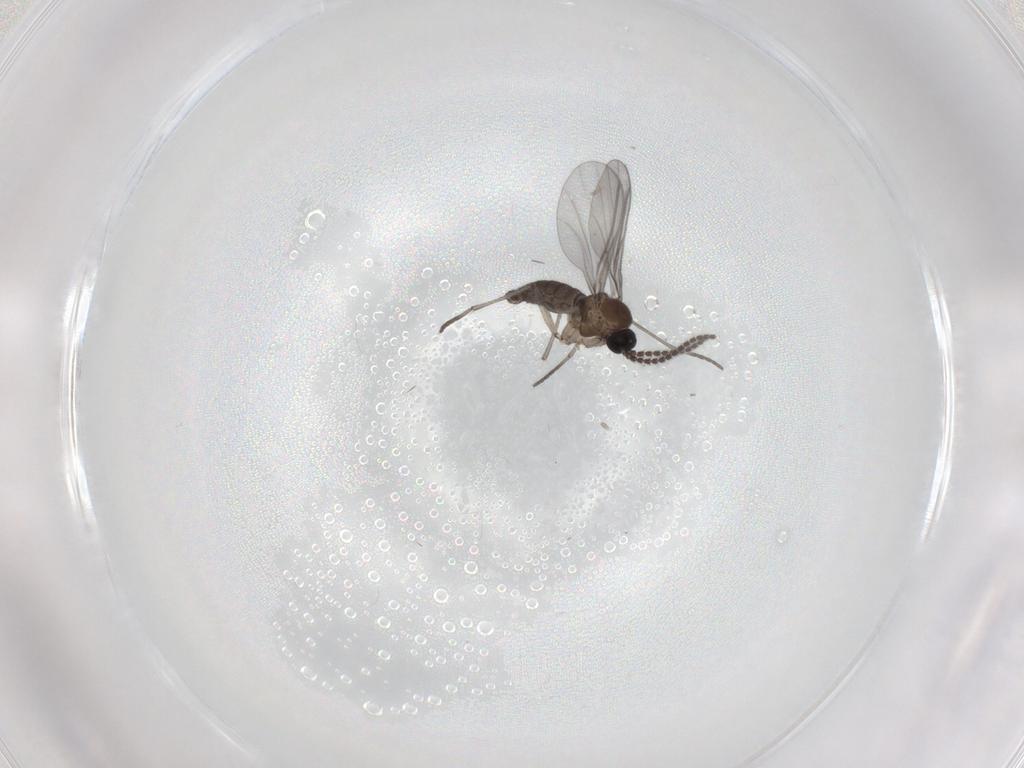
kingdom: Animalia
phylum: Arthropoda
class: Insecta
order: Diptera
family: Chironomidae
